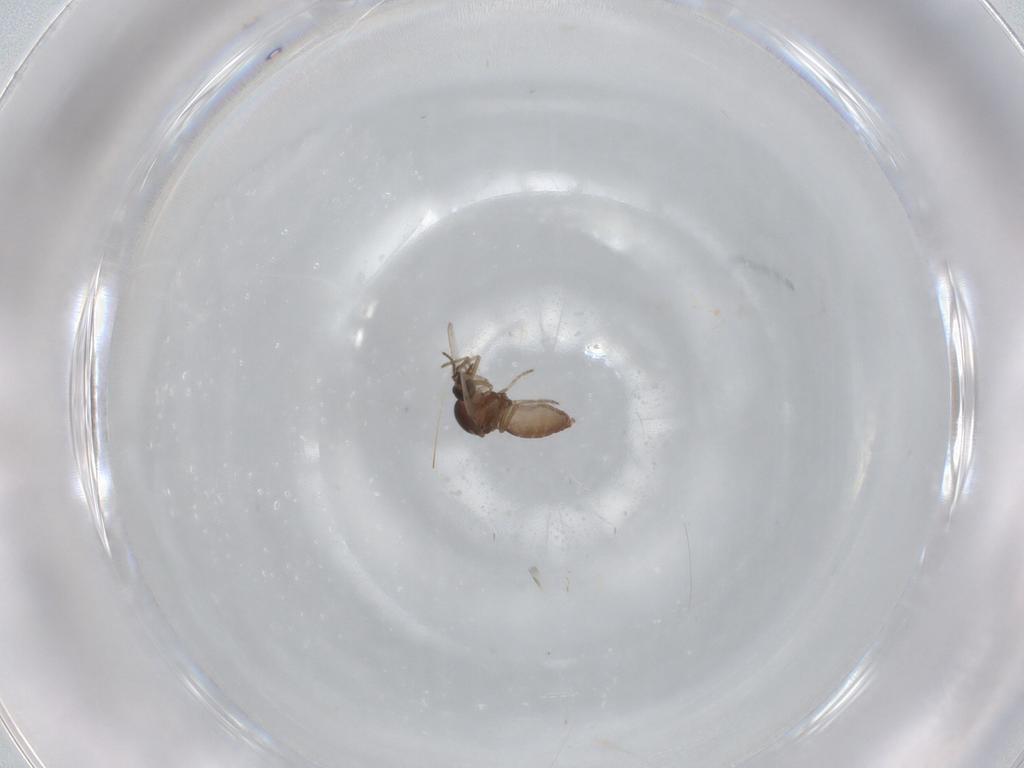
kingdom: Animalia
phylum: Arthropoda
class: Insecta
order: Diptera
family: Ceratopogonidae
